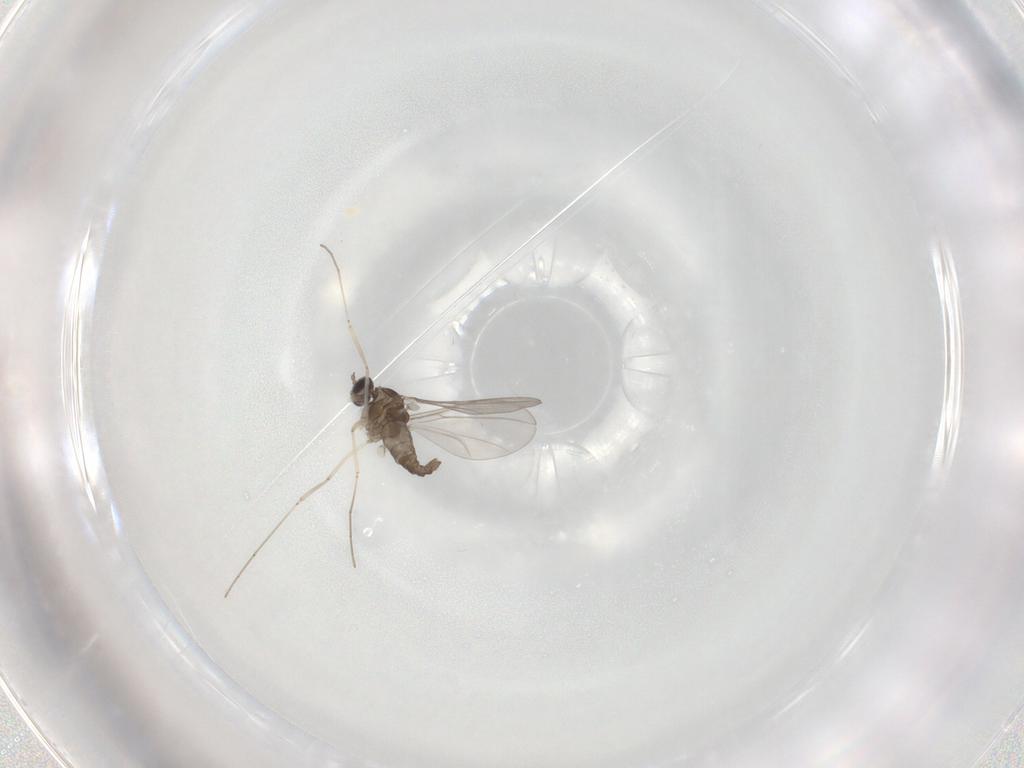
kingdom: Animalia
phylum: Arthropoda
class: Insecta
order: Diptera
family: Cecidomyiidae
